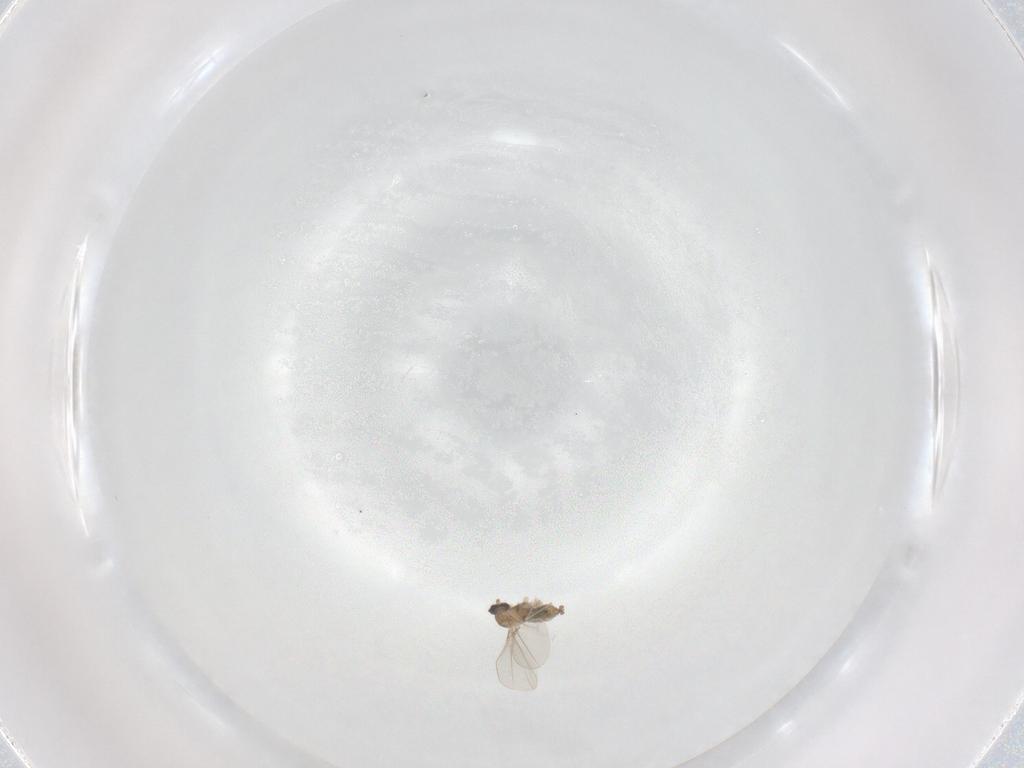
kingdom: Animalia
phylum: Arthropoda
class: Insecta
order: Diptera
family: Cecidomyiidae
